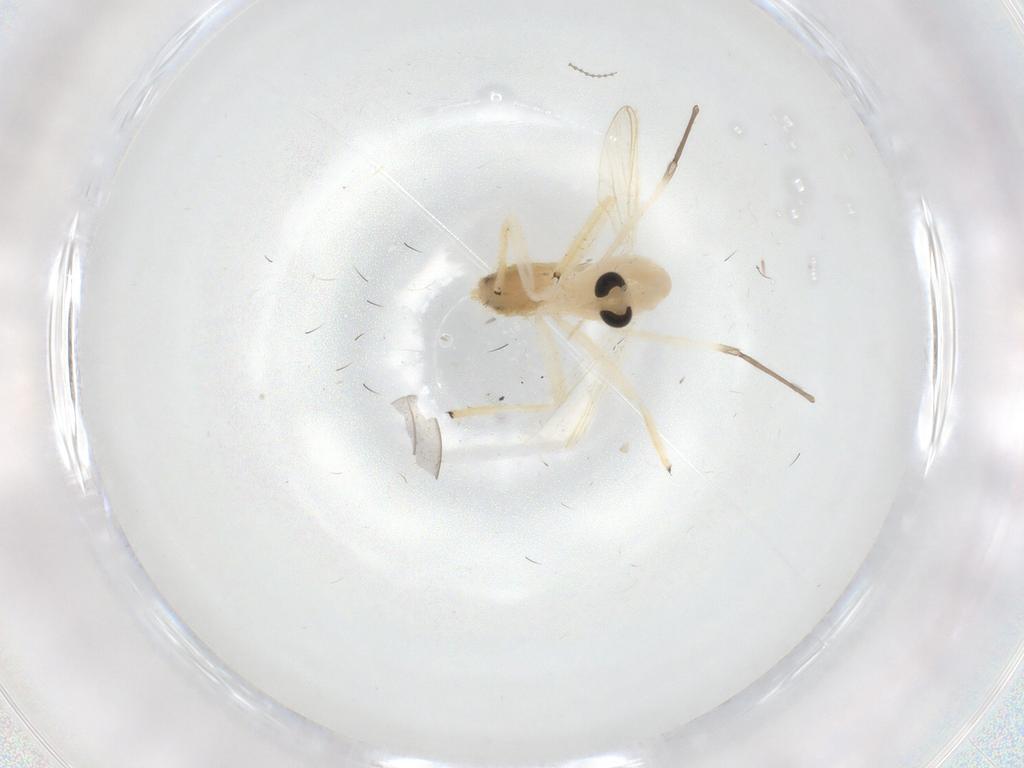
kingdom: Animalia
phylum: Arthropoda
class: Insecta
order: Diptera
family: Chironomidae
